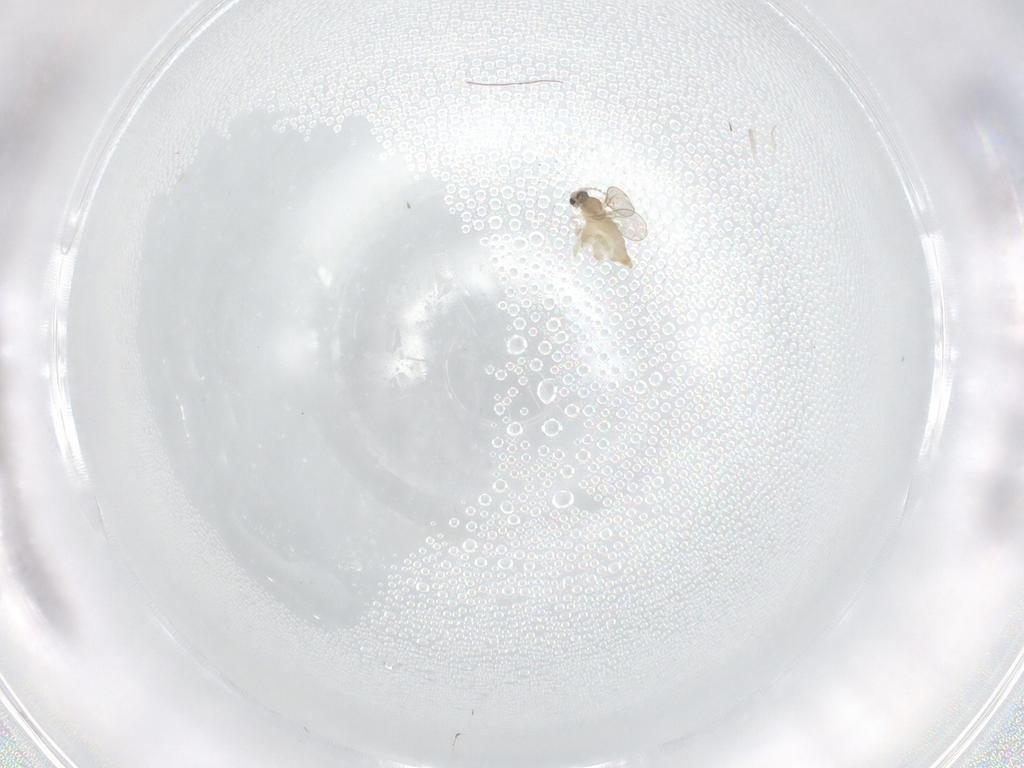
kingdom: Animalia
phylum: Arthropoda
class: Insecta
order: Diptera
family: Cecidomyiidae
